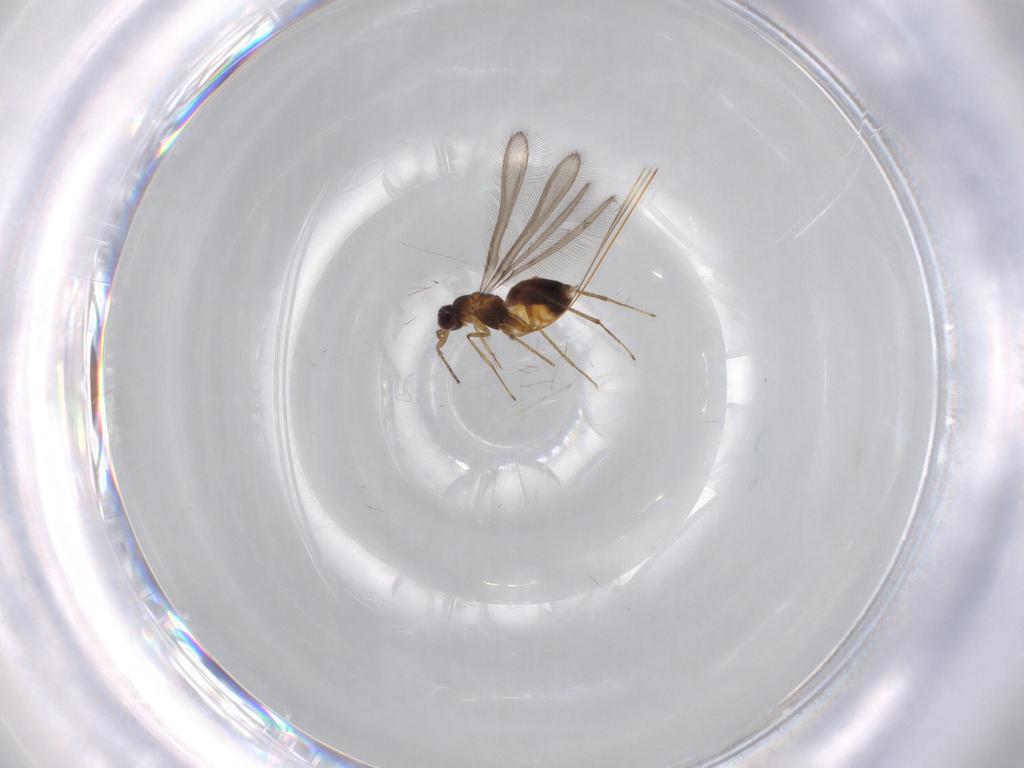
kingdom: Animalia
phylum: Arthropoda
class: Insecta
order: Hymenoptera
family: Mymaridae
